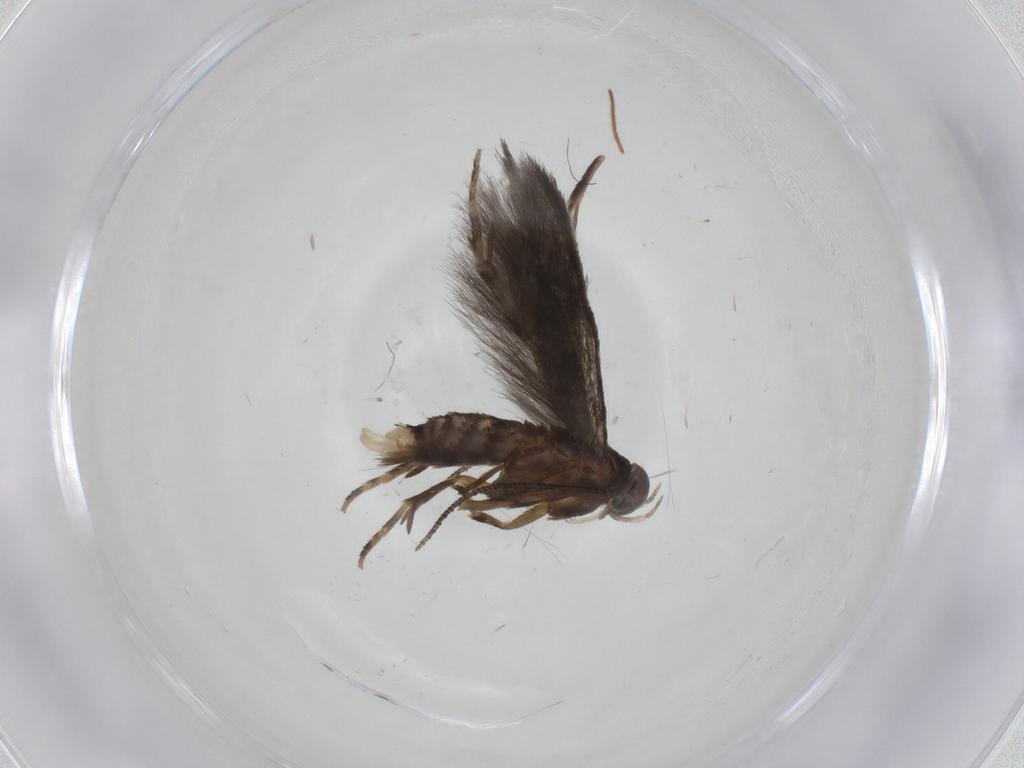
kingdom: Animalia
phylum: Arthropoda
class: Insecta
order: Lepidoptera
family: Elachistidae
